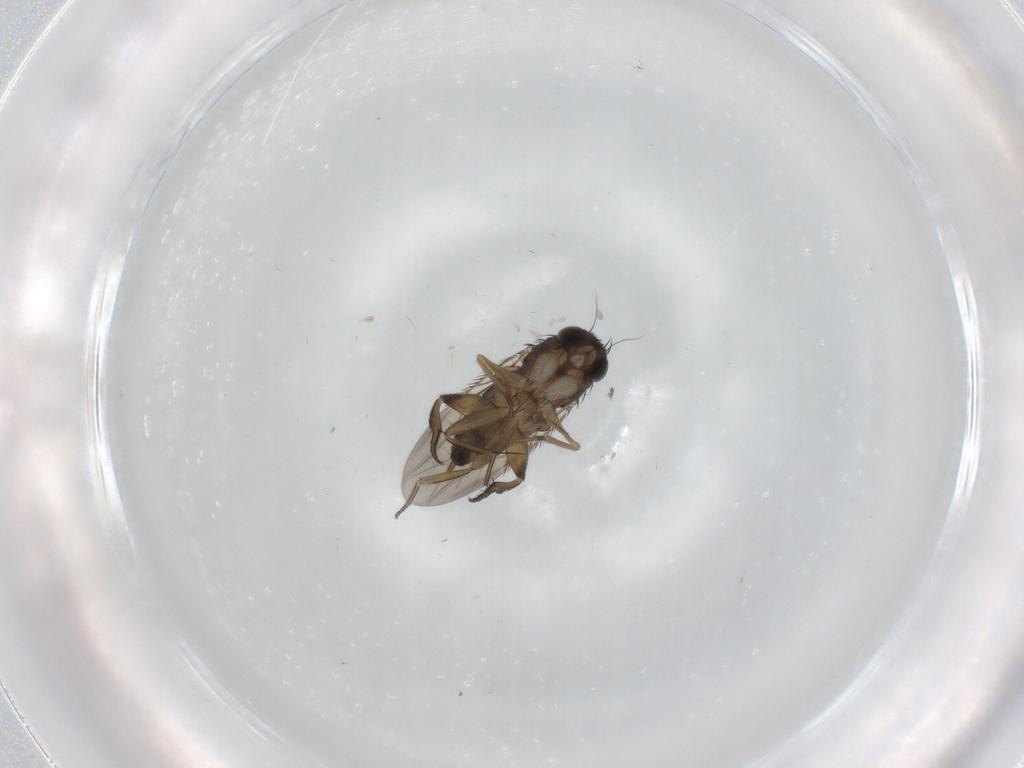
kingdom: Animalia
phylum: Arthropoda
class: Insecta
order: Diptera
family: Phoridae
